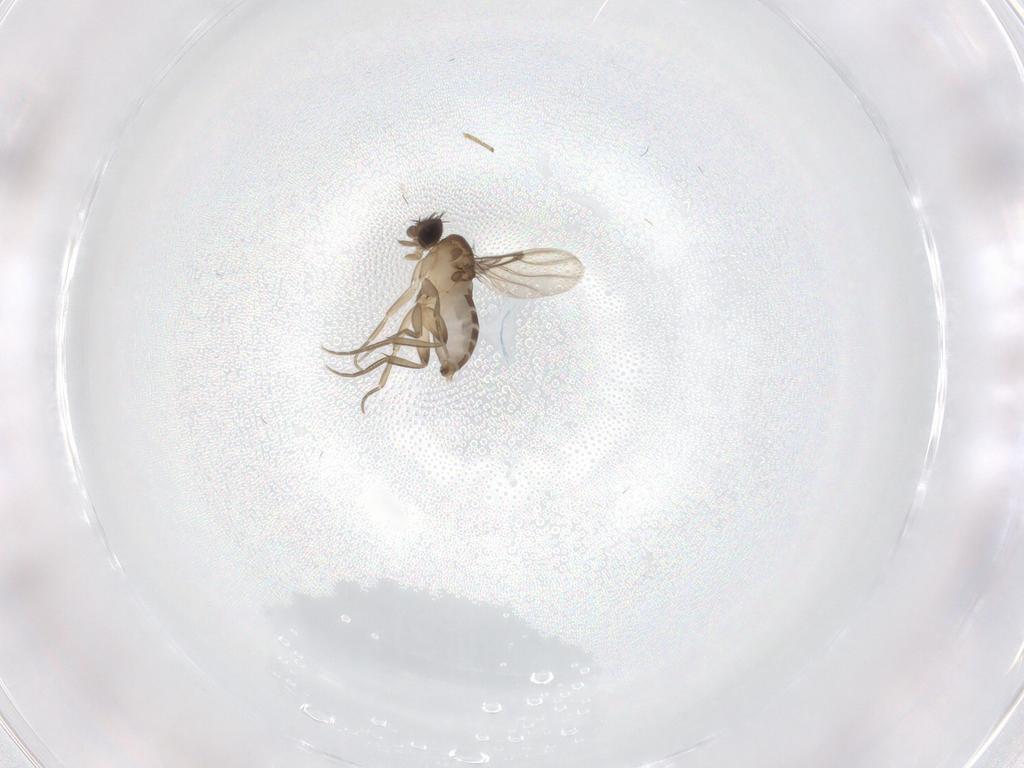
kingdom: Animalia
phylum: Arthropoda
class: Insecta
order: Diptera
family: Phoridae
